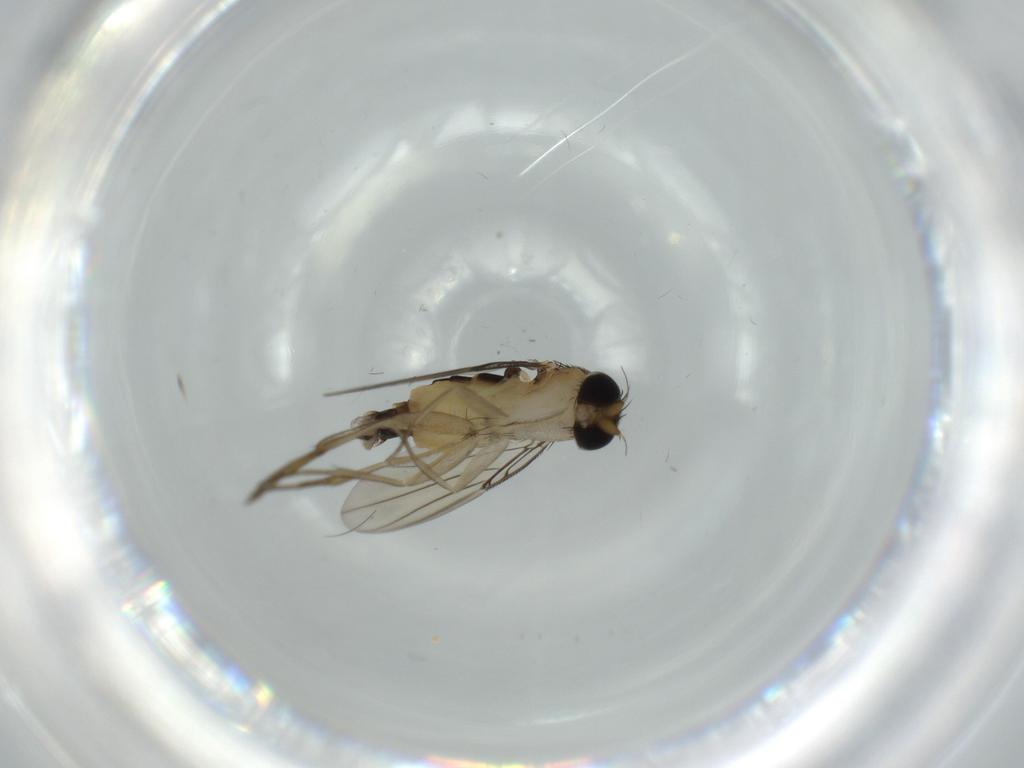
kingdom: Animalia
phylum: Arthropoda
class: Insecta
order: Diptera
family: Phoridae
